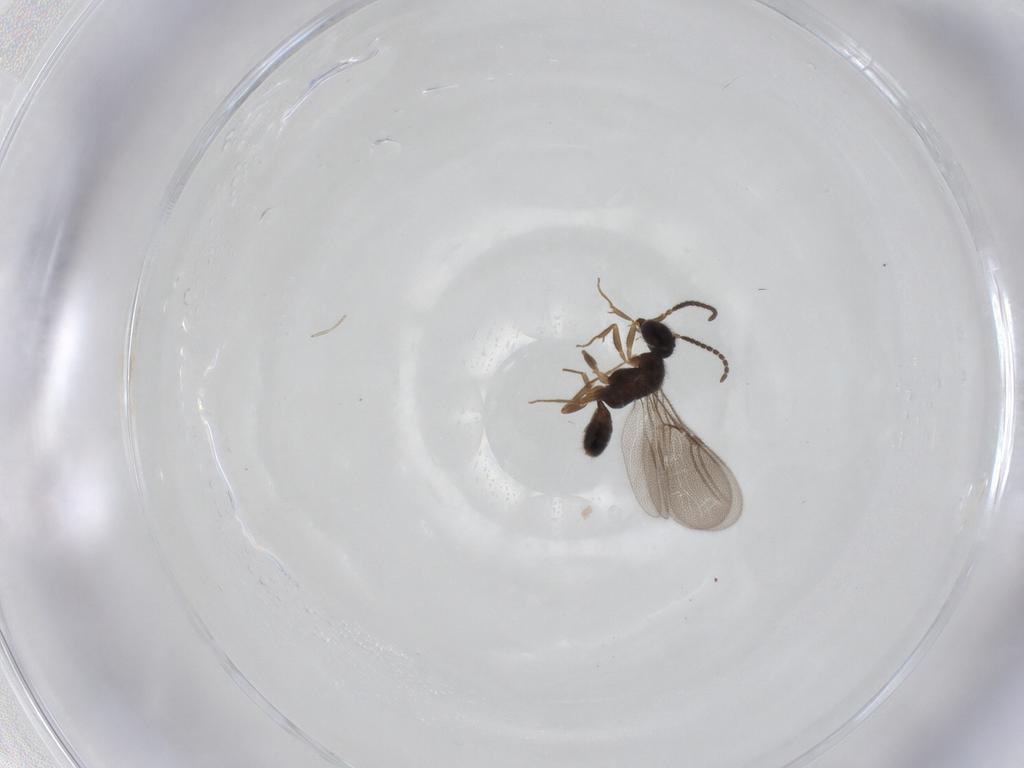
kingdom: Animalia
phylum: Arthropoda
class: Insecta
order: Hymenoptera
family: Bethylidae
